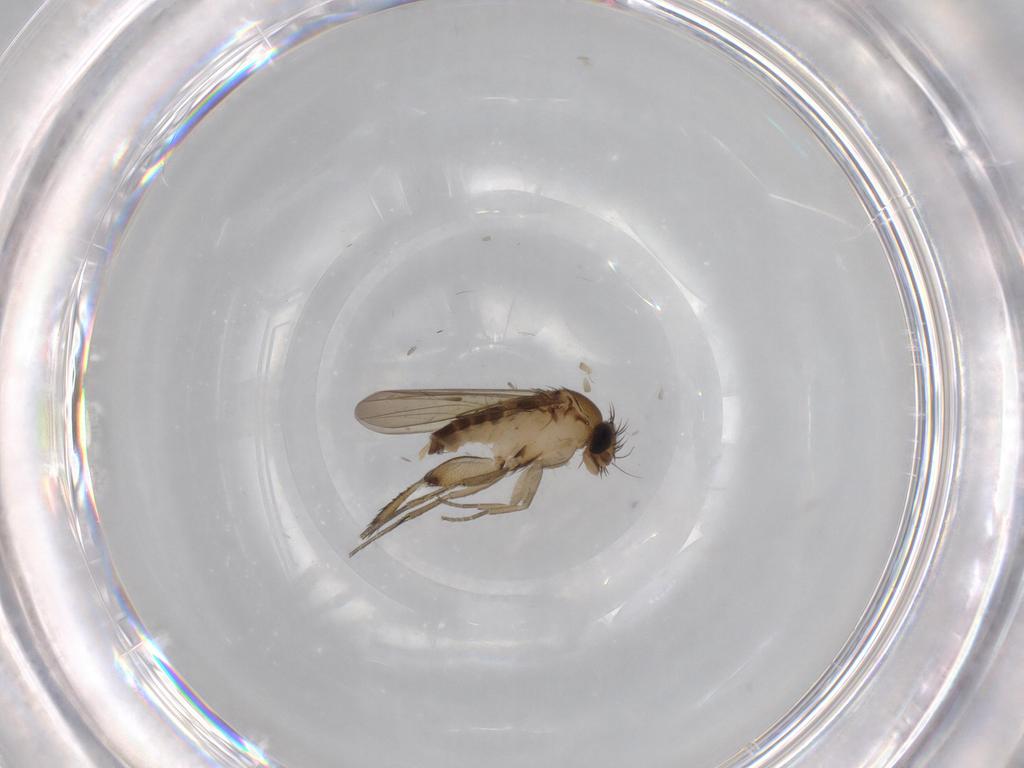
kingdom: Animalia
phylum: Arthropoda
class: Insecta
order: Diptera
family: Phoridae
